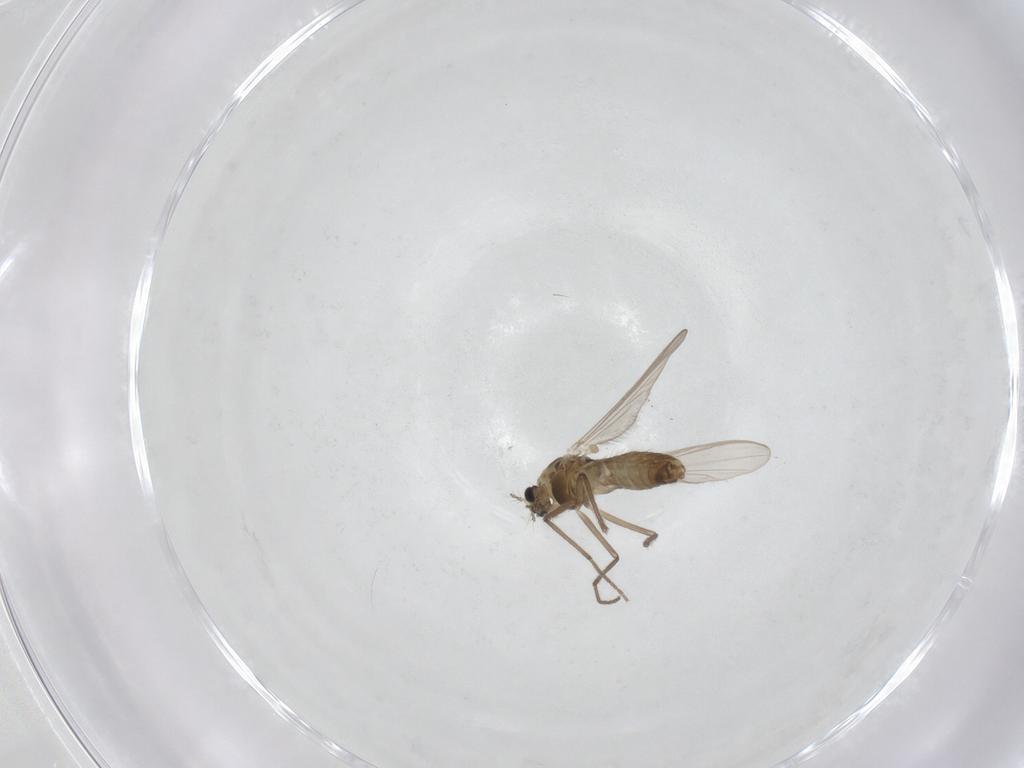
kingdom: Animalia
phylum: Arthropoda
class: Insecta
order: Diptera
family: Chironomidae
